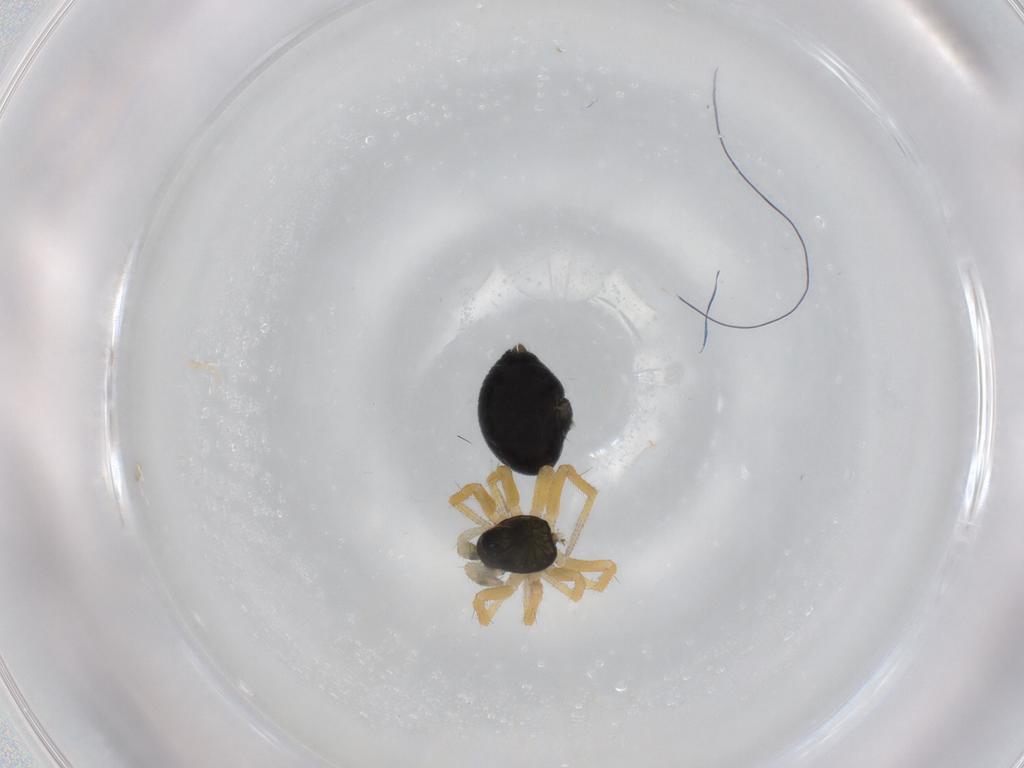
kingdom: Animalia
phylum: Arthropoda
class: Arachnida
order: Araneae
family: Linyphiidae
